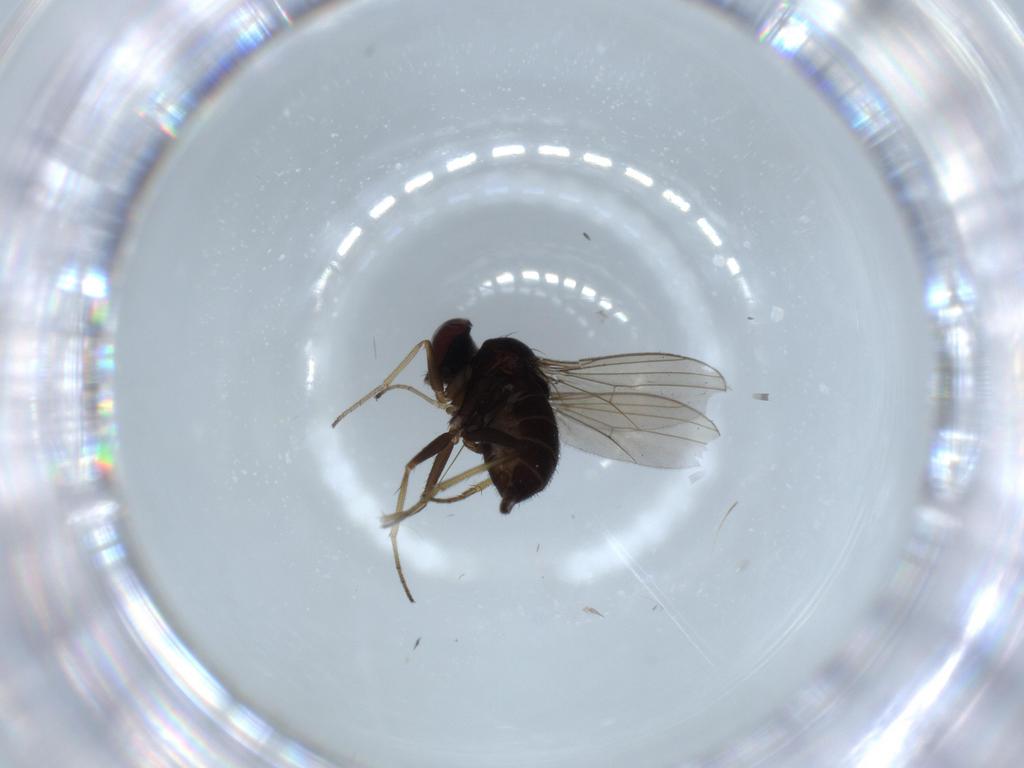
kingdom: Animalia
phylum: Arthropoda
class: Insecta
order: Diptera
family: Dolichopodidae
